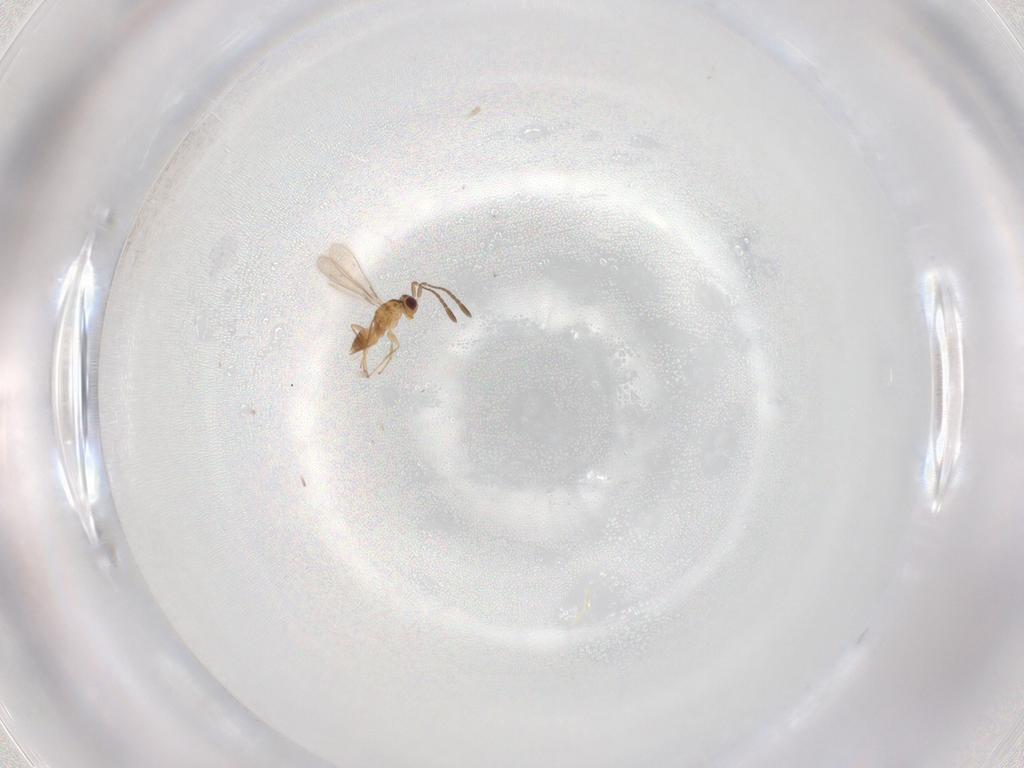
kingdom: Animalia
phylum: Arthropoda
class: Insecta
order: Hymenoptera
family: Mymaridae
